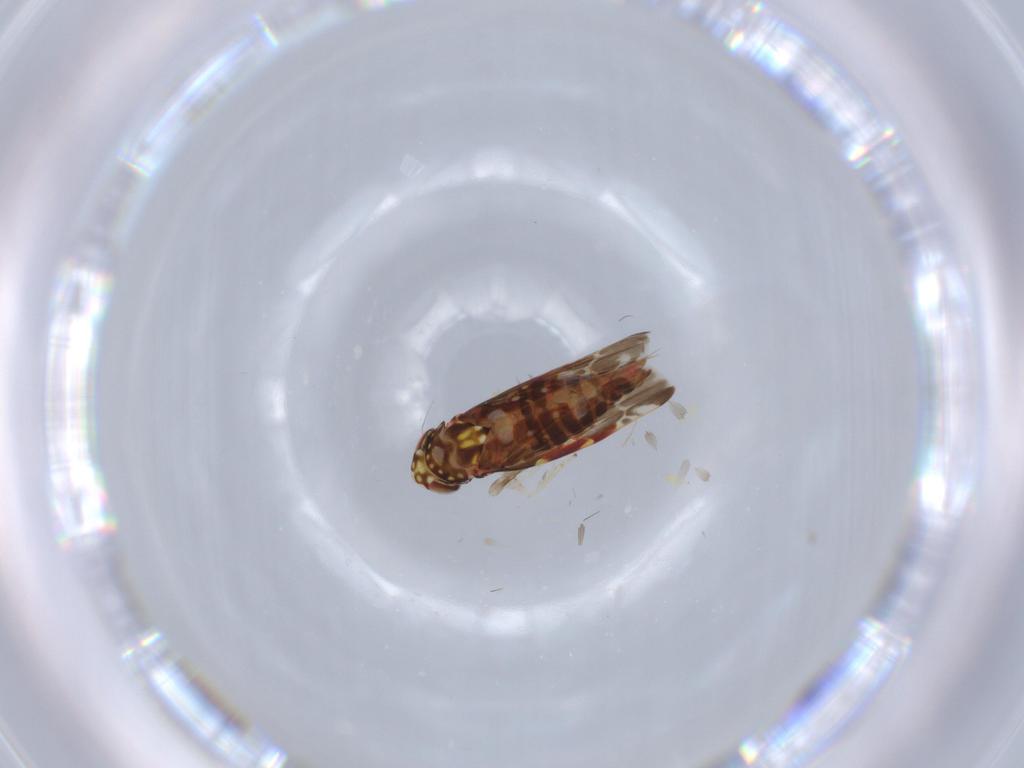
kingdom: Animalia
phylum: Arthropoda
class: Insecta
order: Hemiptera
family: Cicadellidae
